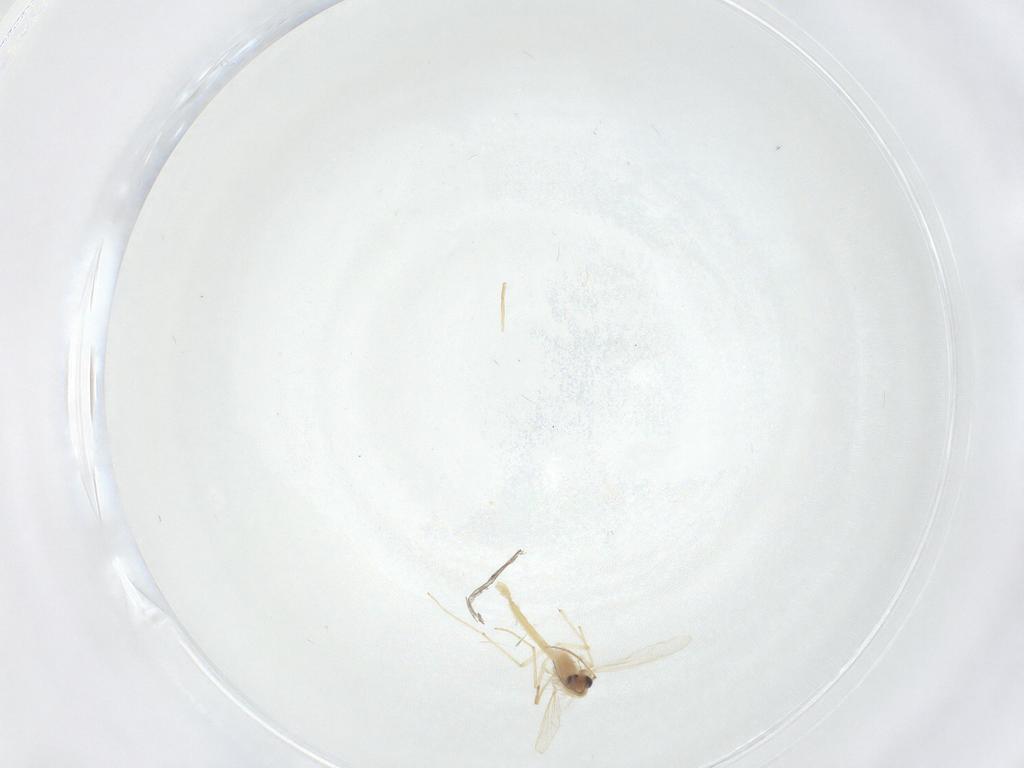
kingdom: Animalia
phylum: Arthropoda
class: Insecta
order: Diptera
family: Chironomidae
